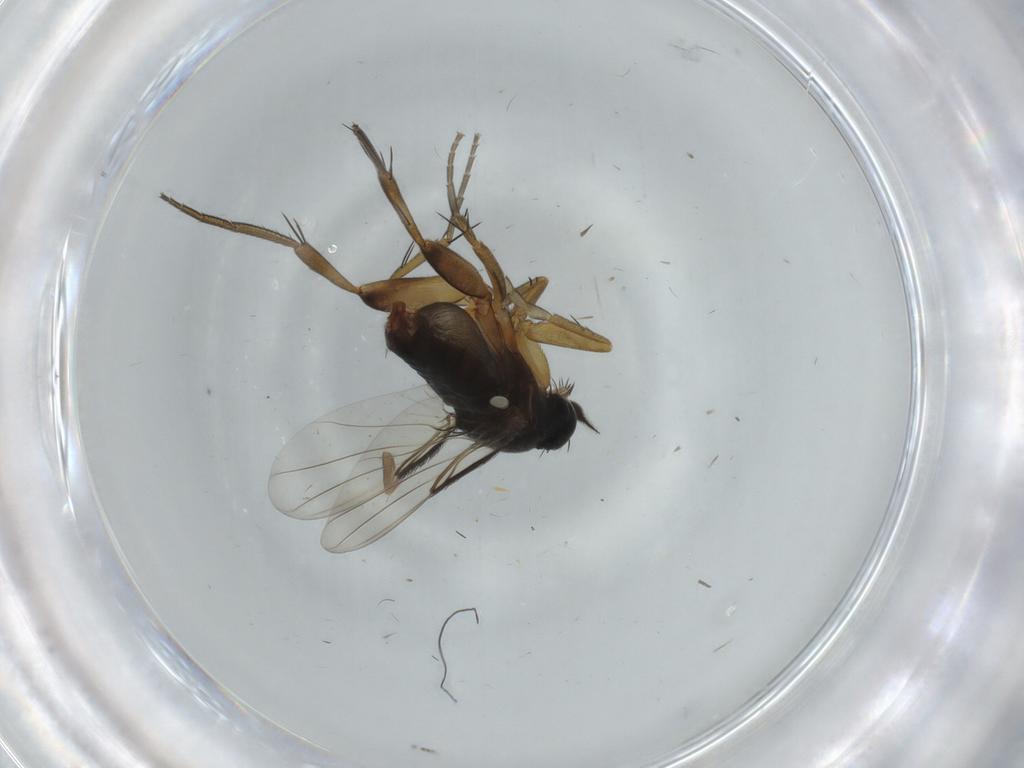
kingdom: Animalia
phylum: Arthropoda
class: Insecta
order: Diptera
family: Phoridae
